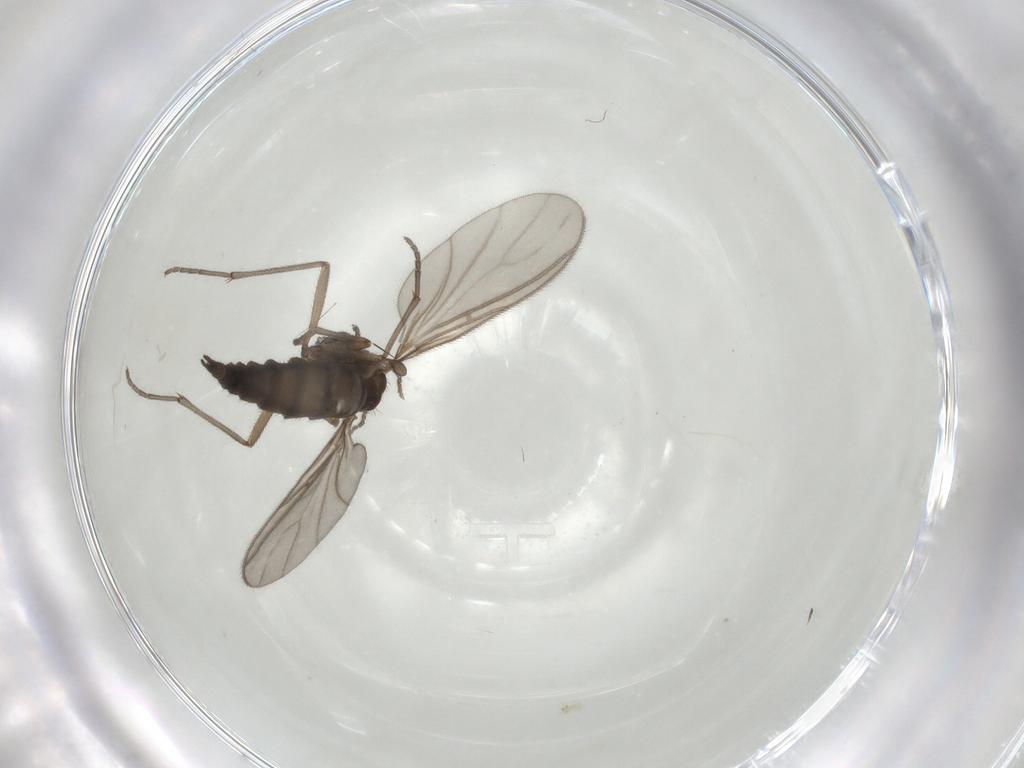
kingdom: Animalia
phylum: Arthropoda
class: Insecta
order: Diptera
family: Sciaridae
